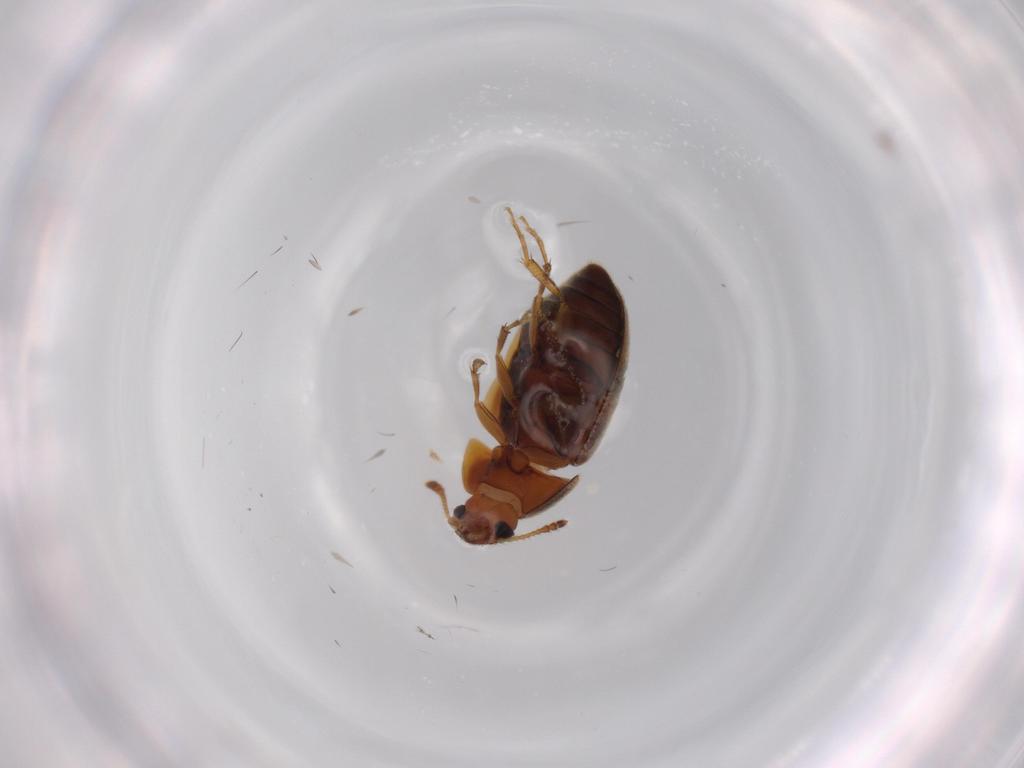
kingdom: Animalia
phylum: Arthropoda
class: Insecta
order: Coleoptera
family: Mycetophagidae
